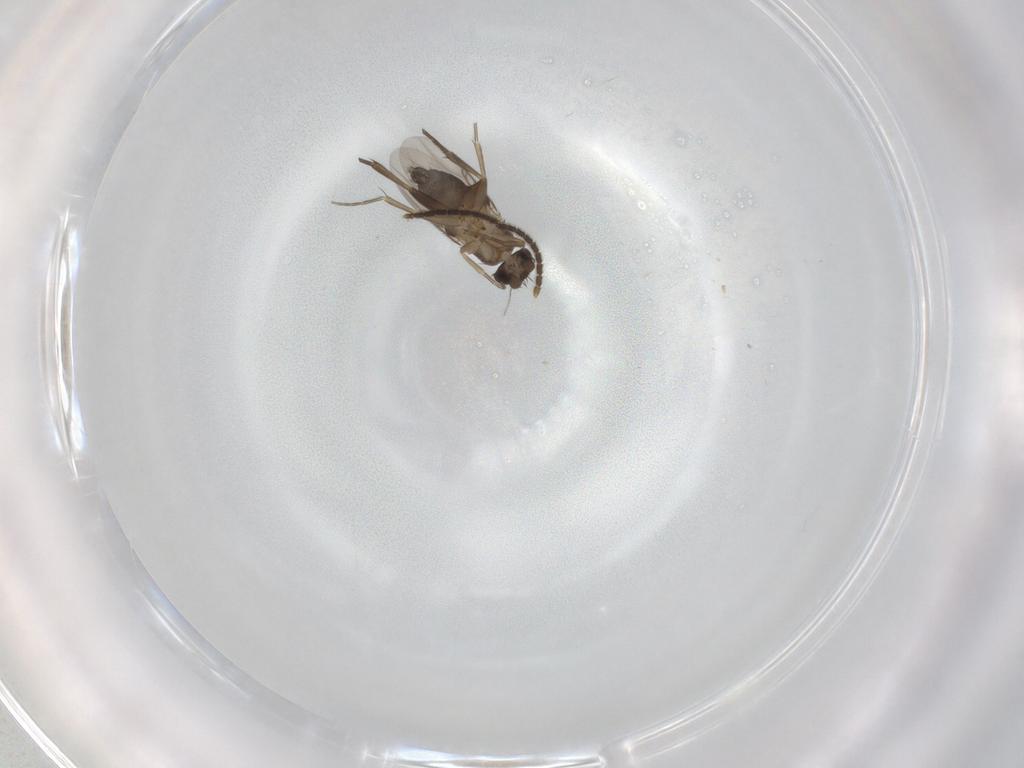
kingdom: Animalia
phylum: Arthropoda
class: Insecta
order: Diptera
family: Phoridae
